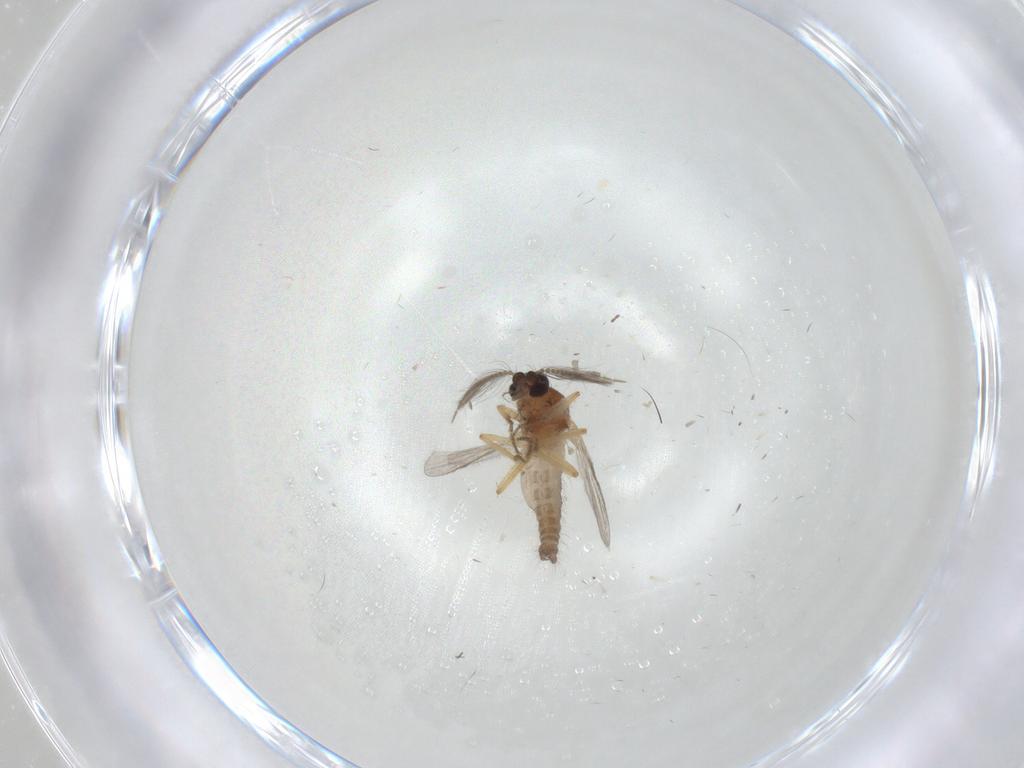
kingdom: Animalia
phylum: Arthropoda
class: Insecta
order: Diptera
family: Ceratopogonidae
